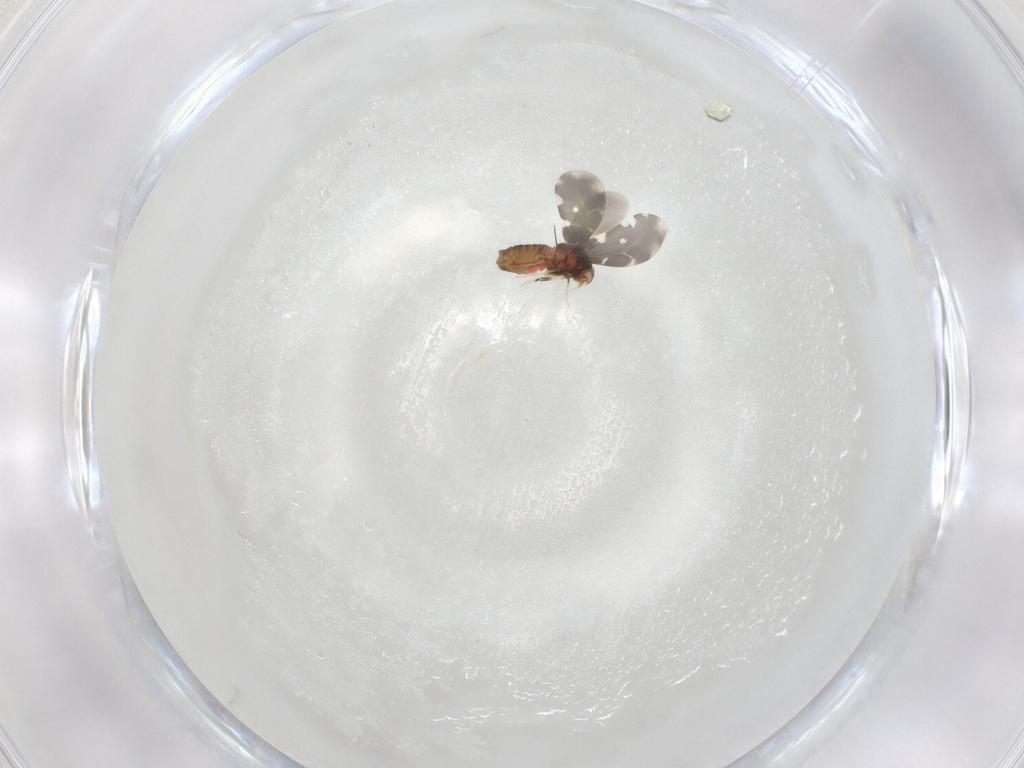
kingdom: Animalia
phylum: Arthropoda
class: Insecta
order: Hemiptera
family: Aleyrodidae
